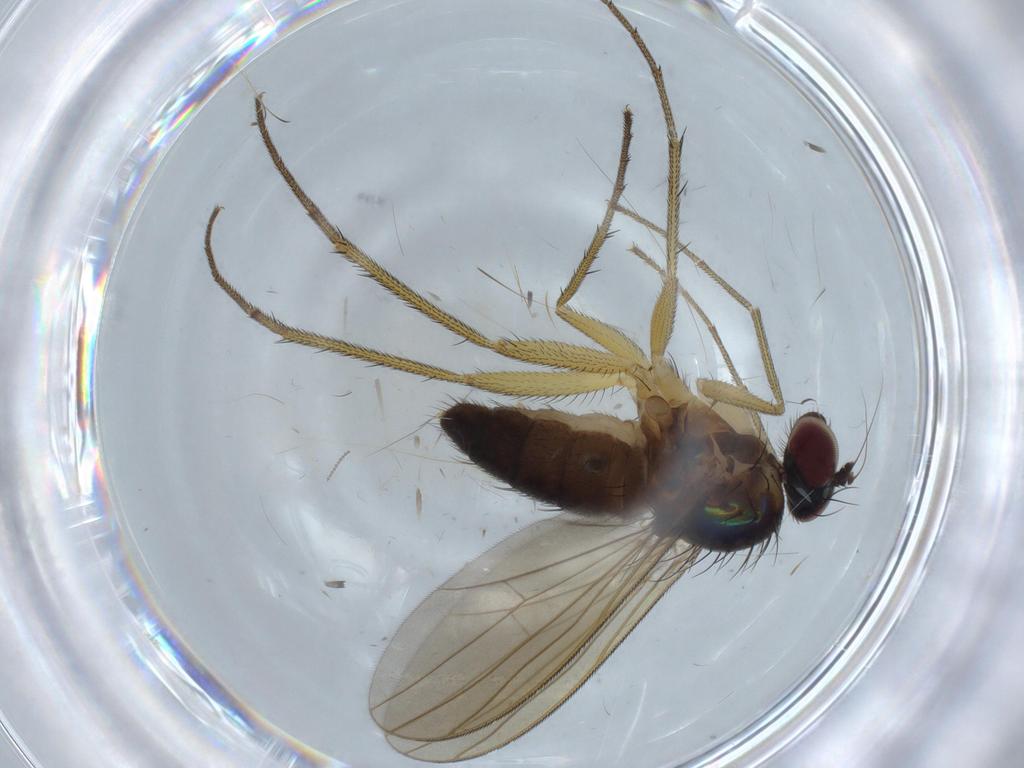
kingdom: Animalia
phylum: Arthropoda
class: Insecta
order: Diptera
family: Dolichopodidae
